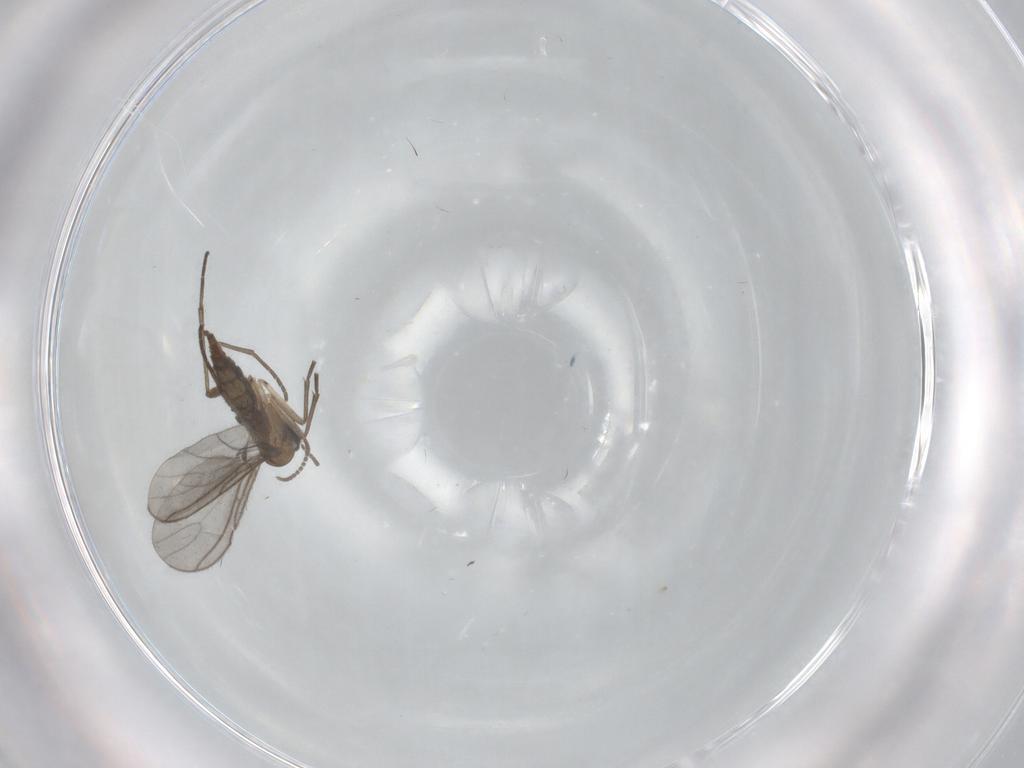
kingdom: Animalia
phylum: Arthropoda
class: Insecta
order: Diptera
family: Sciaridae
